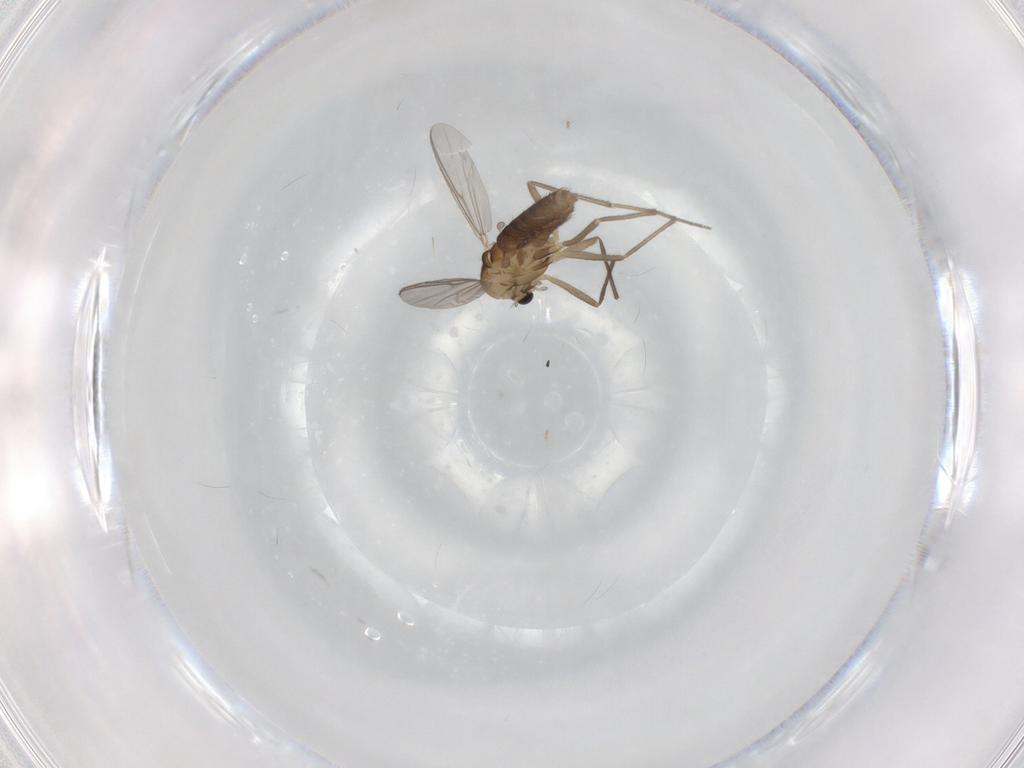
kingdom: Animalia
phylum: Arthropoda
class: Insecta
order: Diptera
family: Chironomidae
